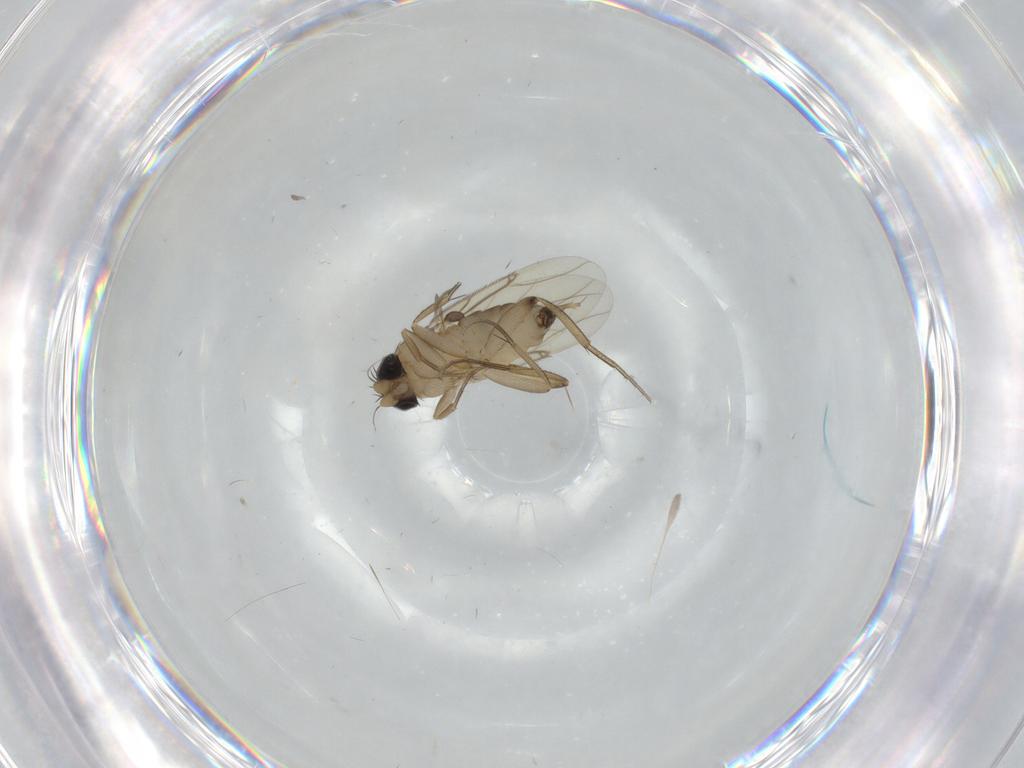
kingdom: Animalia
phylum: Arthropoda
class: Insecta
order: Diptera
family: Phoridae
